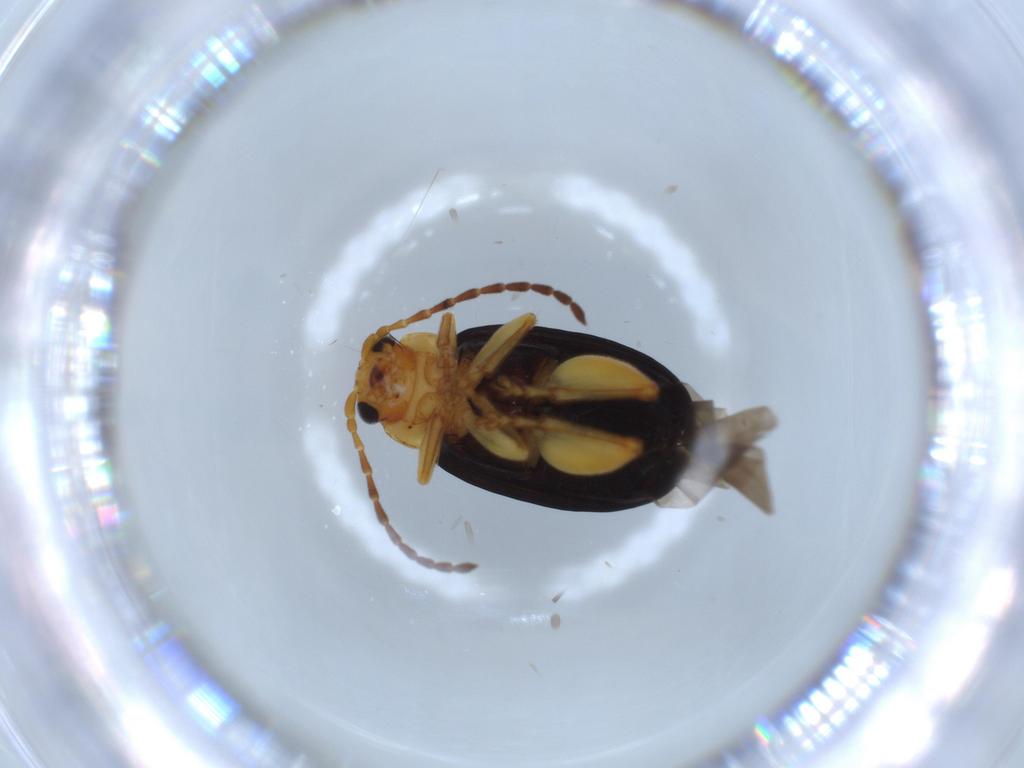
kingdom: Animalia
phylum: Arthropoda
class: Insecta
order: Coleoptera
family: Chrysomelidae
